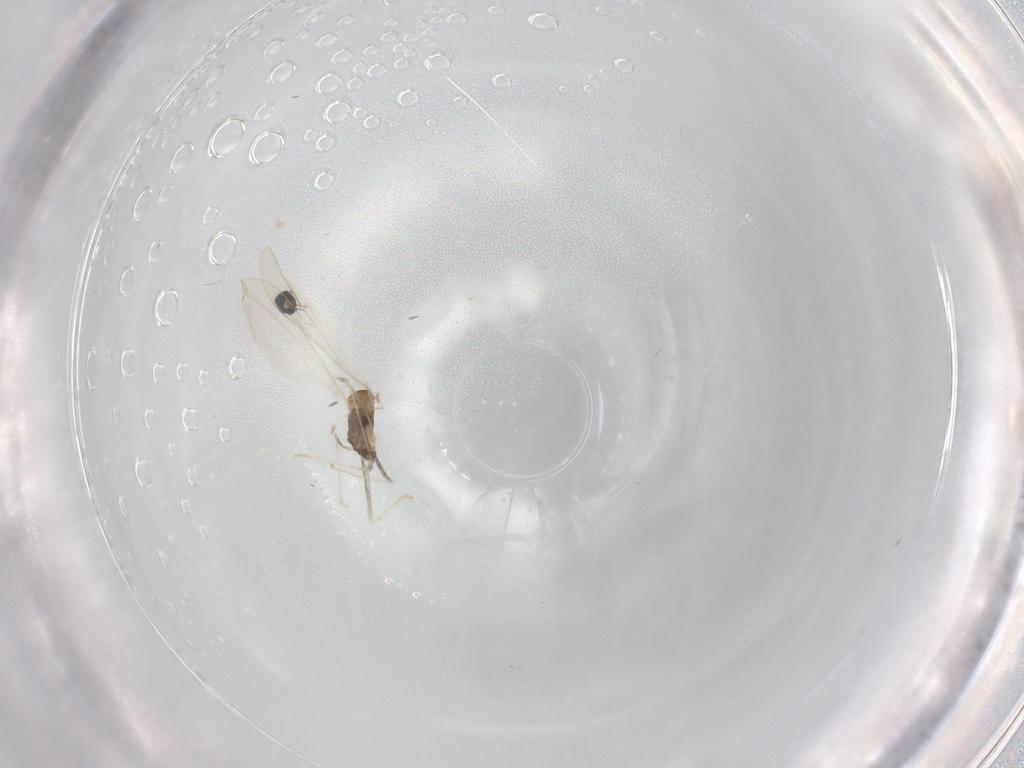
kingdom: Animalia
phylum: Arthropoda
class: Insecta
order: Diptera
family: Cecidomyiidae
